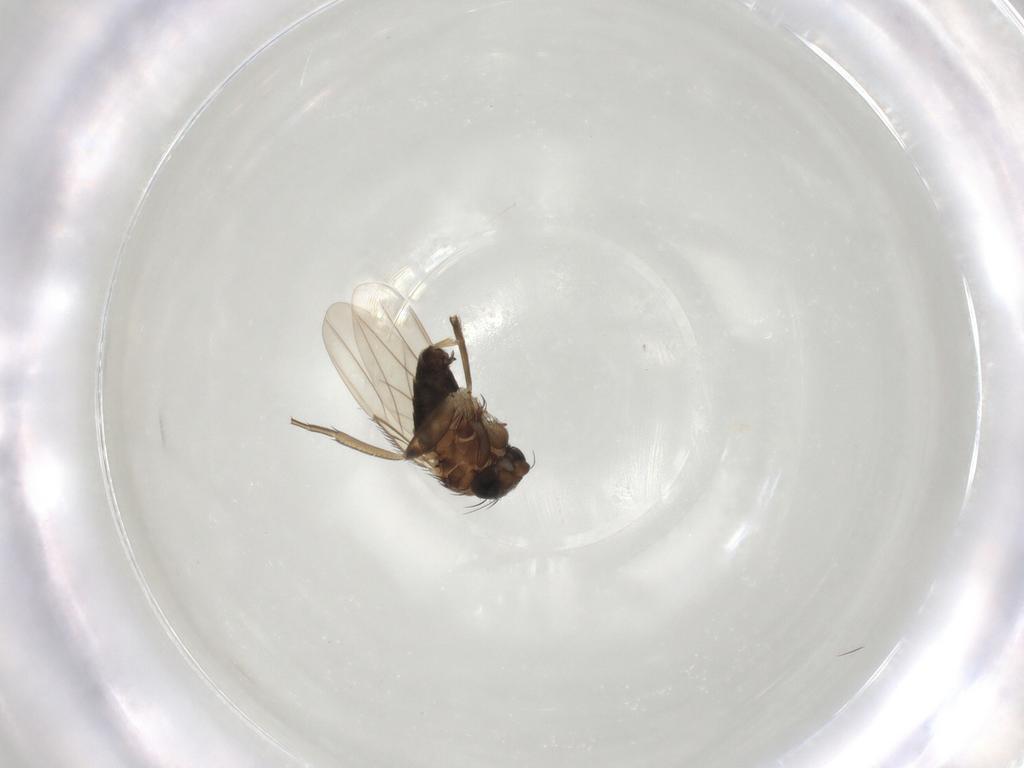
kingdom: Animalia
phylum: Arthropoda
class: Insecta
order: Diptera
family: Phoridae
